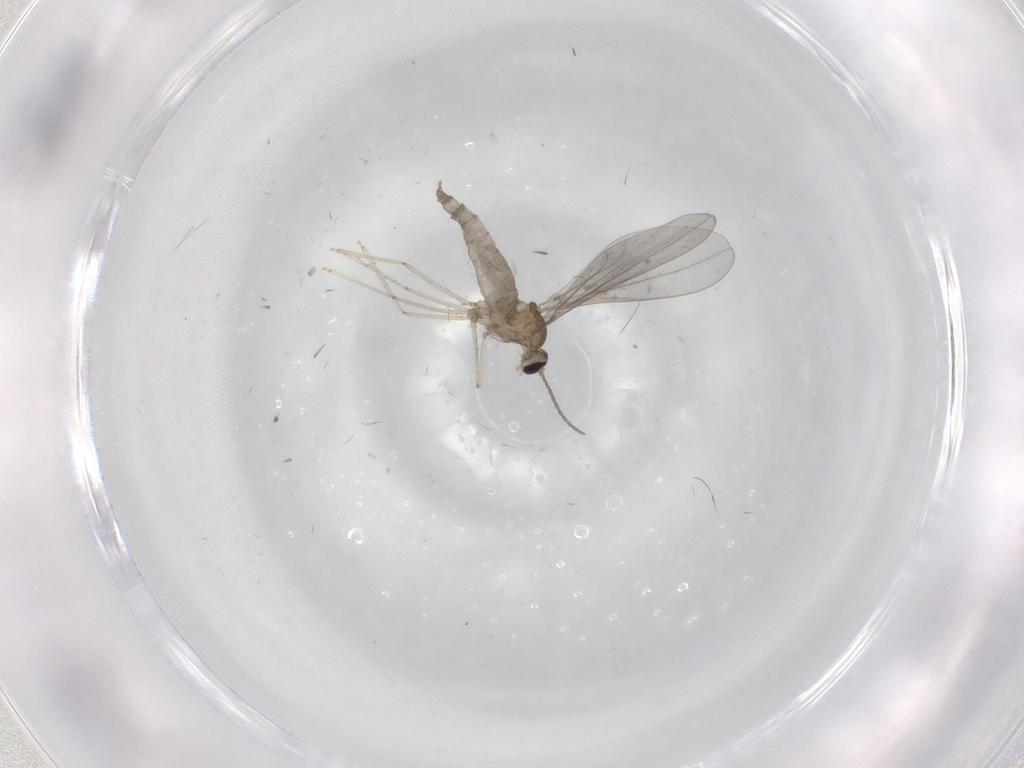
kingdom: Animalia
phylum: Arthropoda
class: Insecta
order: Diptera
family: Cecidomyiidae
